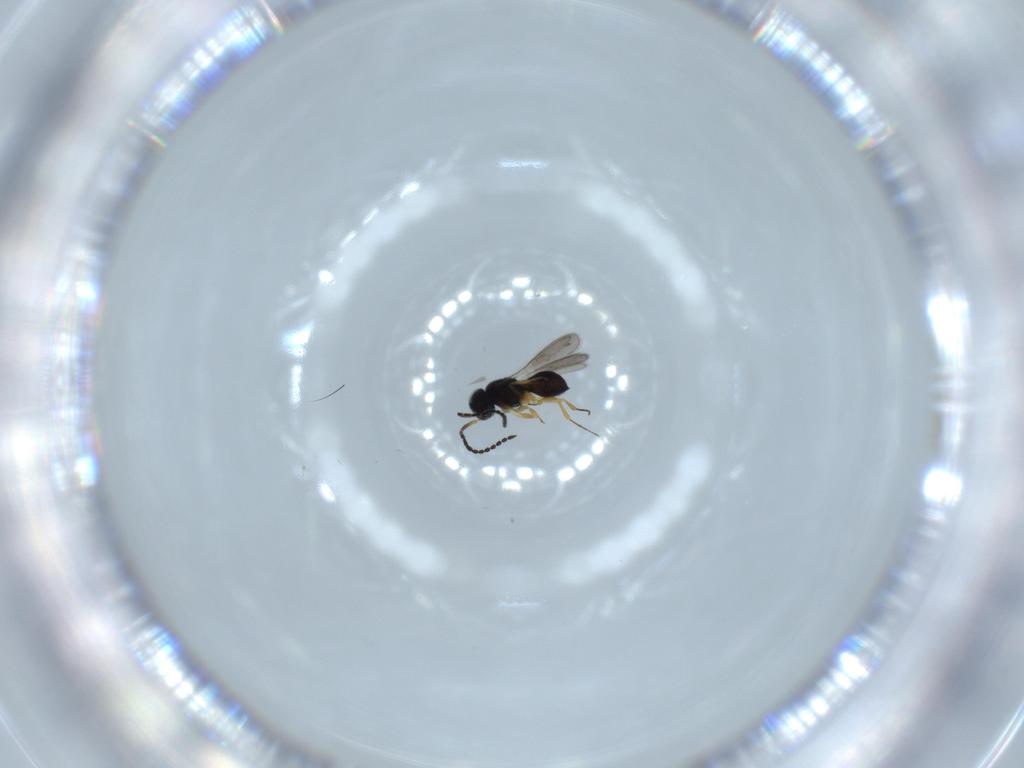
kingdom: Animalia
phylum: Arthropoda
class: Insecta
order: Hymenoptera
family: Scelionidae
